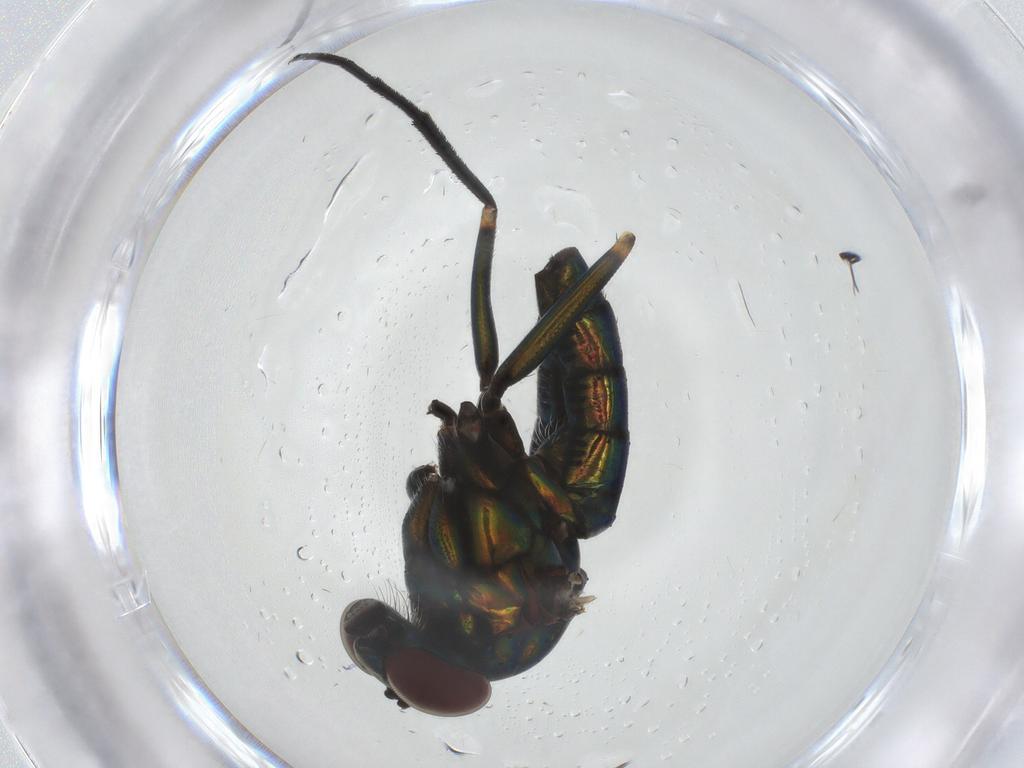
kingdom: Animalia
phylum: Arthropoda
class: Insecta
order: Diptera
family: Dolichopodidae
